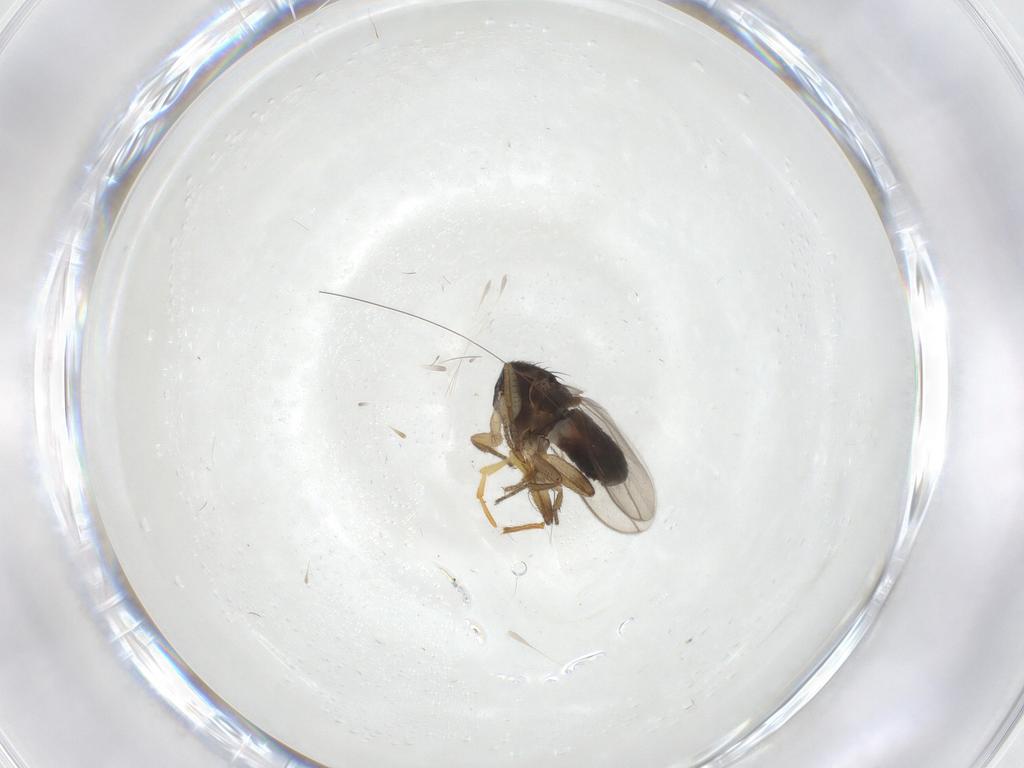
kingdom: Animalia
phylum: Arthropoda
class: Insecta
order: Diptera
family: Sphaeroceridae
